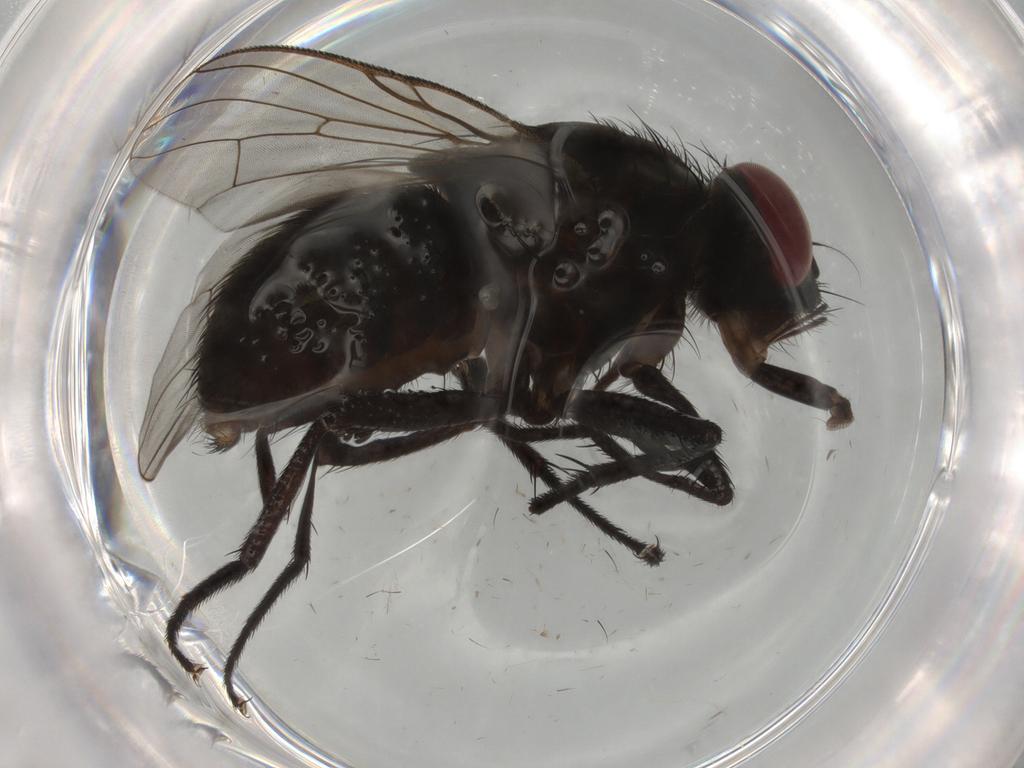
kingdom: Animalia
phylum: Arthropoda
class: Insecta
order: Diptera
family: Muscidae
